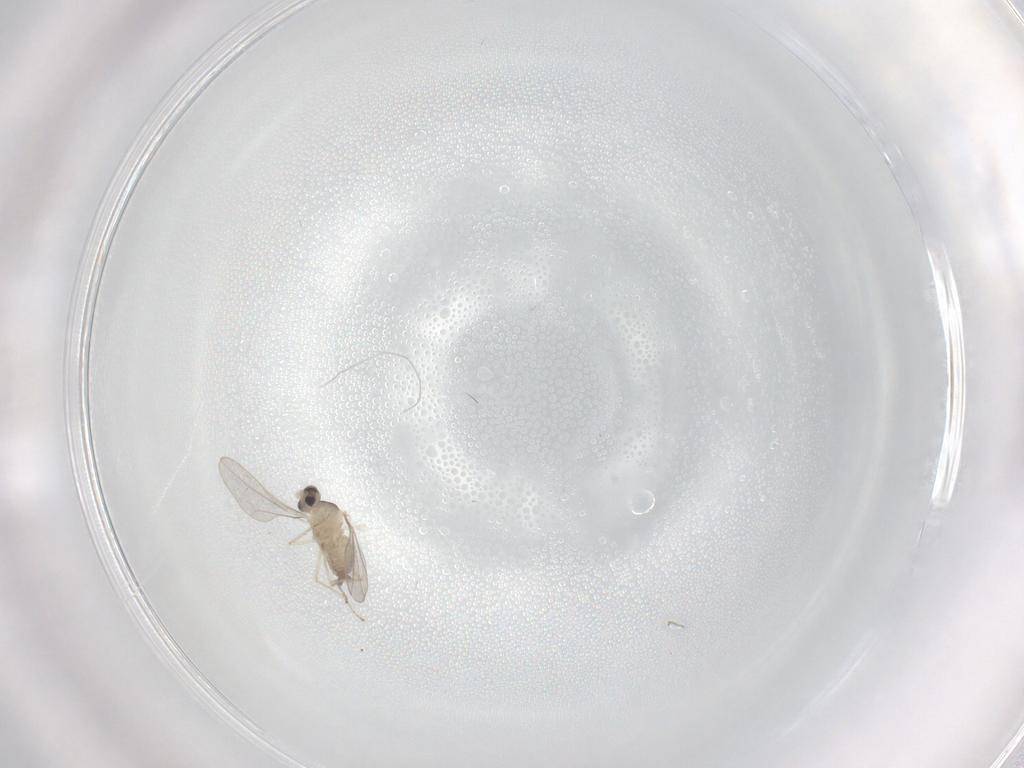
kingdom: Animalia
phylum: Arthropoda
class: Insecta
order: Diptera
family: Cecidomyiidae
